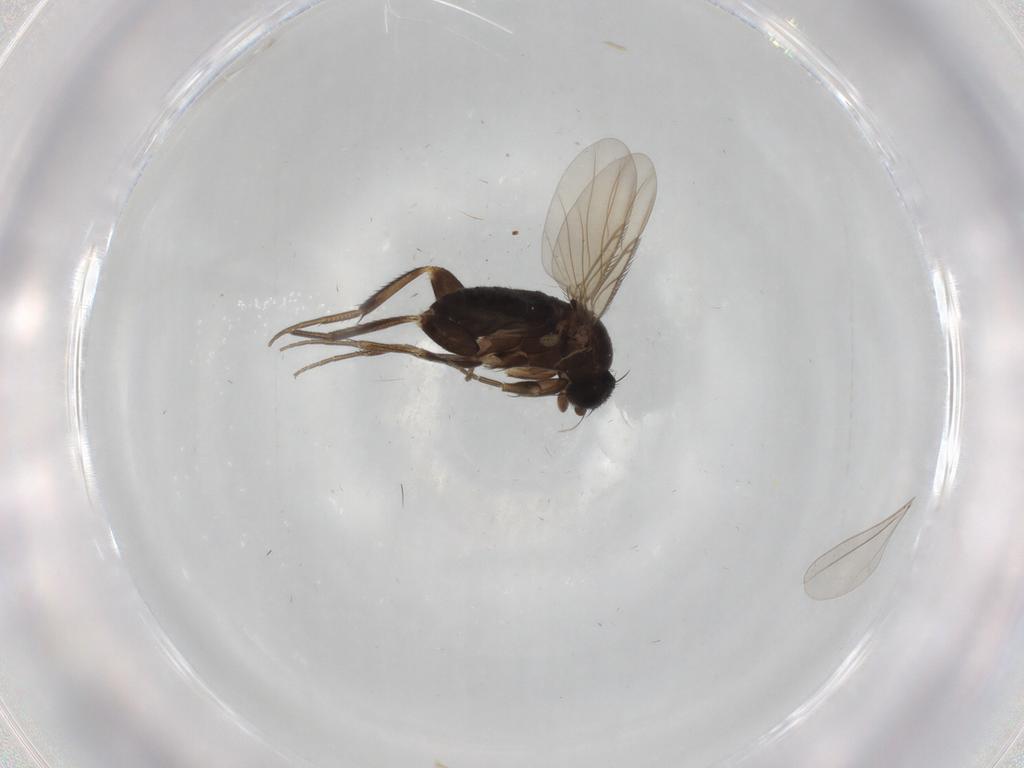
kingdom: Animalia
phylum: Arthropoda
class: Insecta
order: Diptera
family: Phoridae
